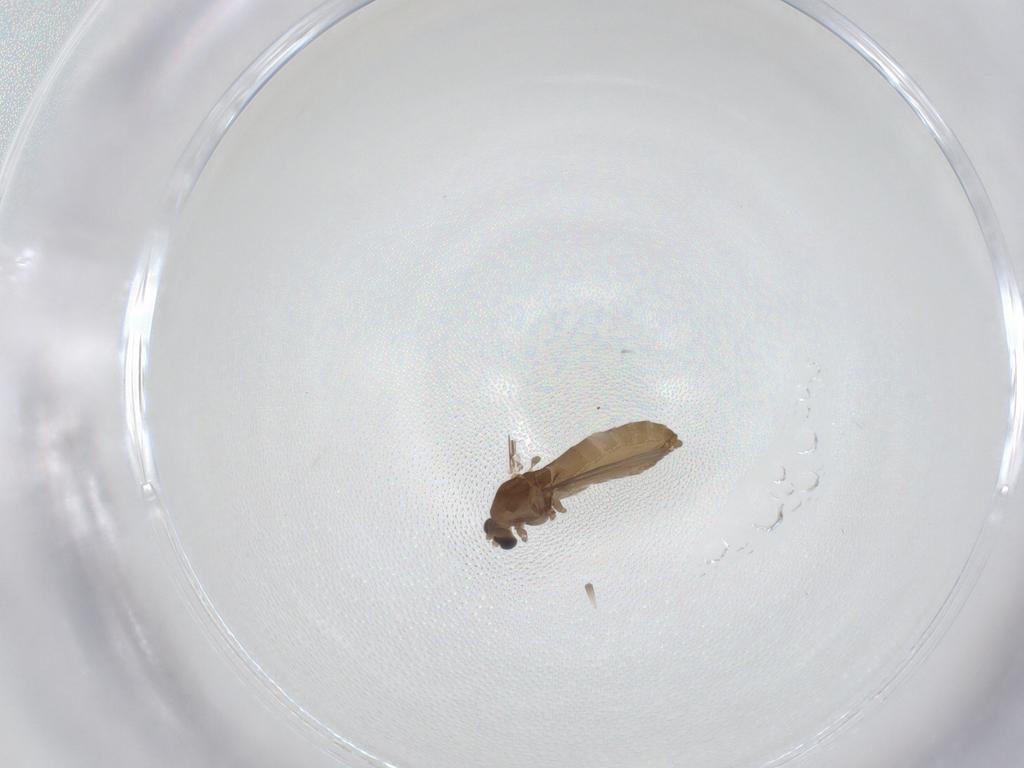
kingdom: Animalia
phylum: Arthropoda
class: Insecta
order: Diptera
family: Chironomidae
